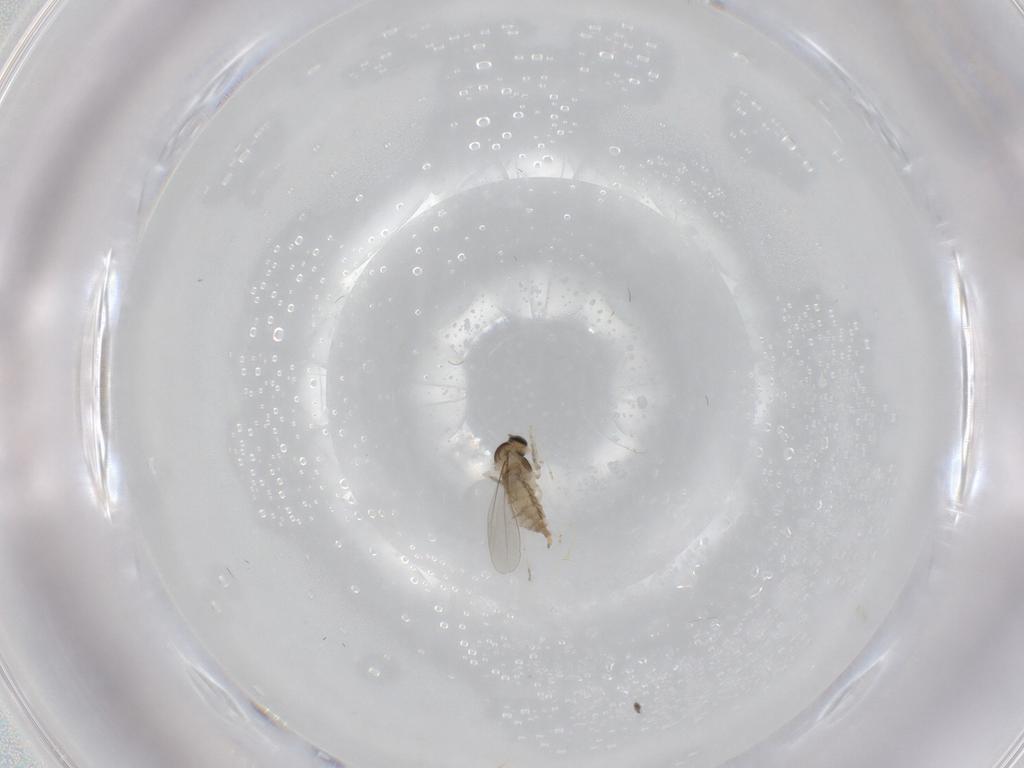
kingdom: Animalia
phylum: Arthropoda
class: Insecta
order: Diptera
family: Cecidomyiidae
